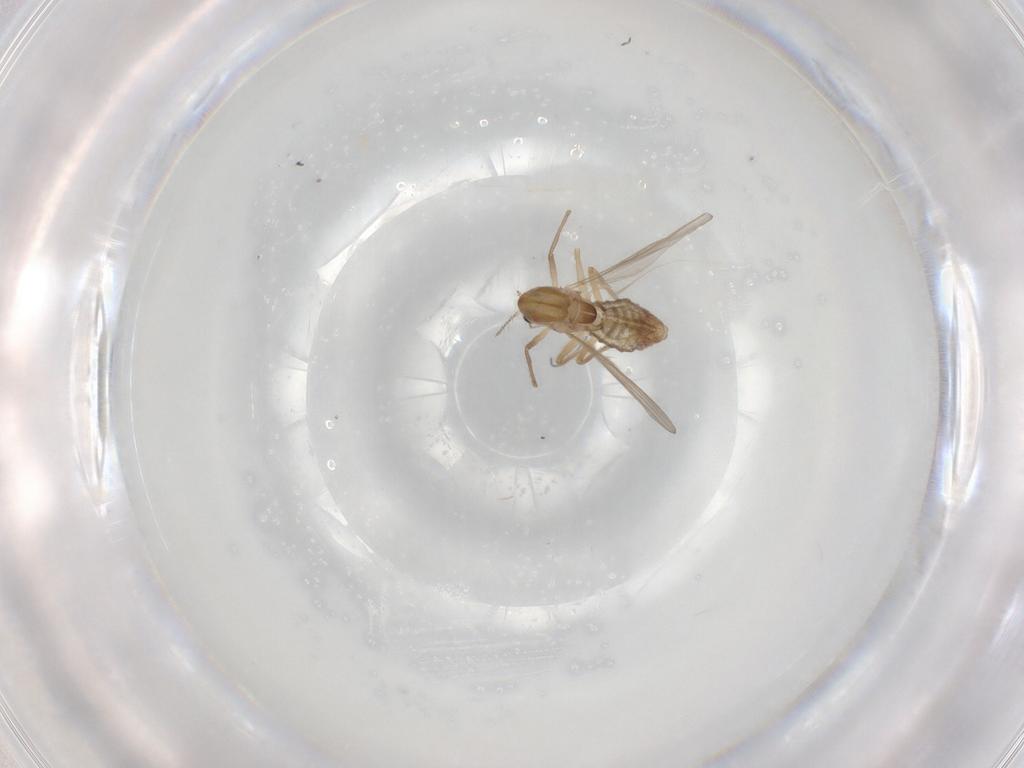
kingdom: Animalia
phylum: Arthropoda
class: Insecta
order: Diptera
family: Chironomidae
